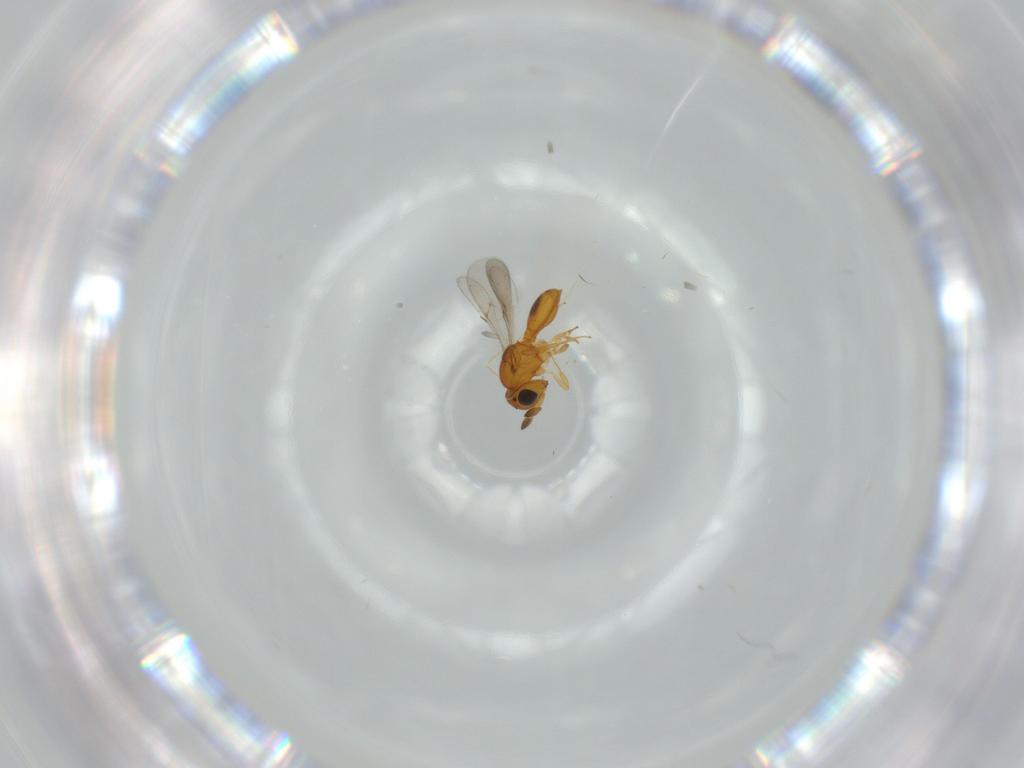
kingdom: Animalia
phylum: Arthropoda
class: Insecta
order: Hymenoptera
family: Scelionidae
